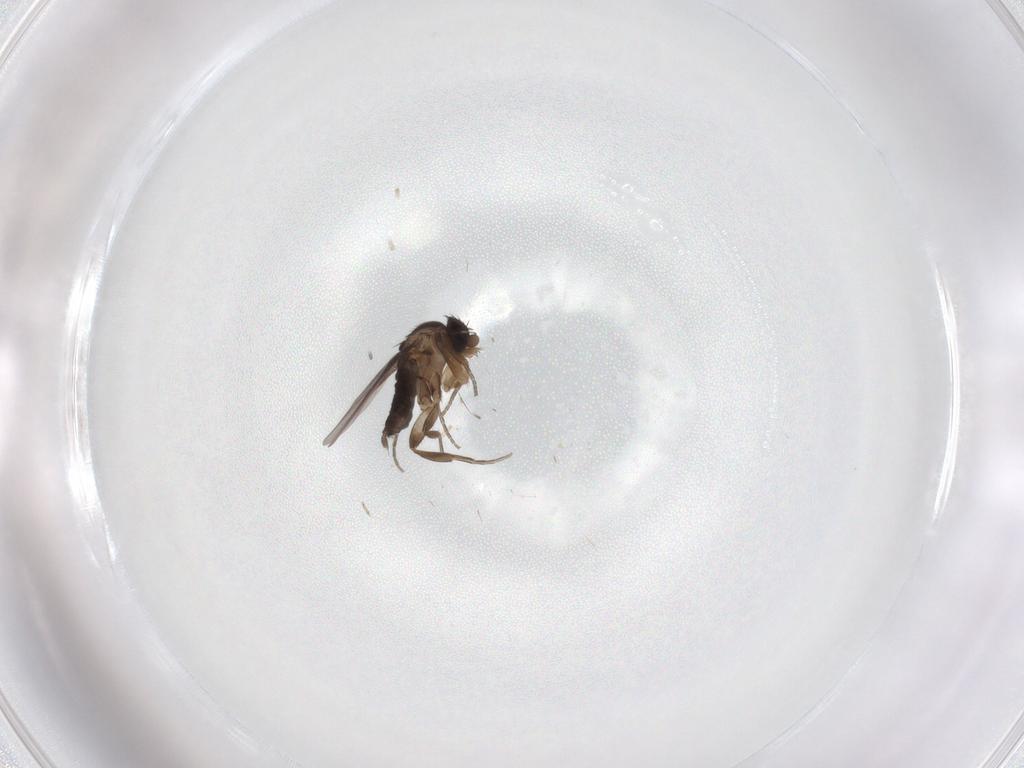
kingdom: Animalia
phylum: Arthropoda
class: Insecta
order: Diptera
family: Phoridae
